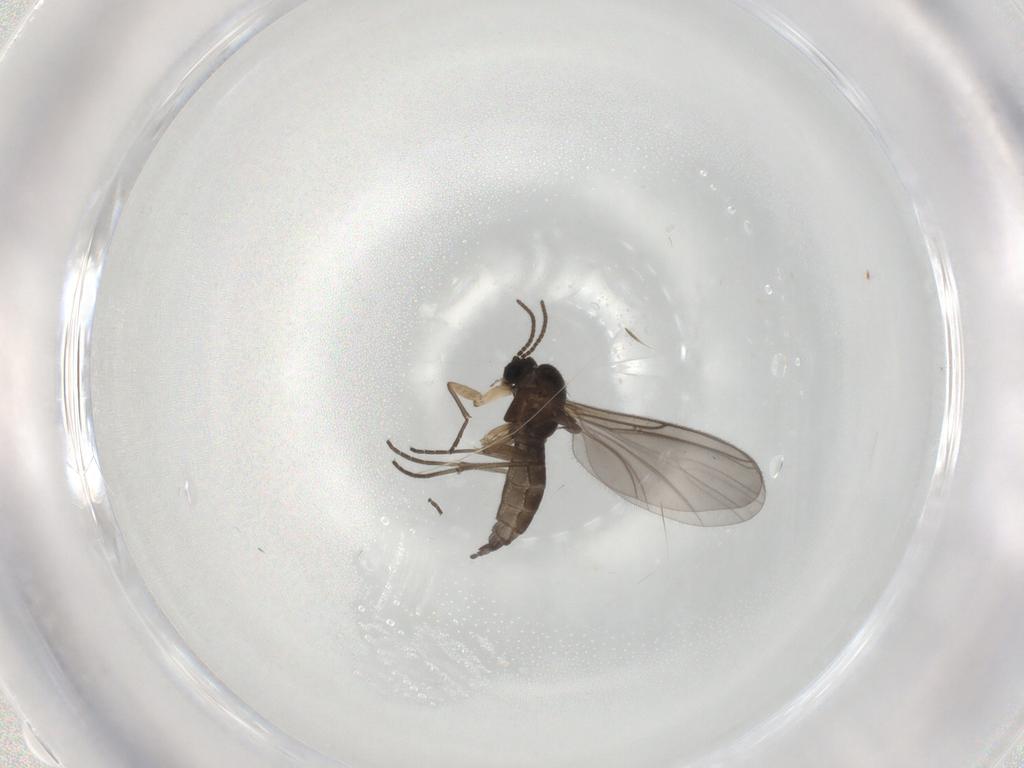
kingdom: Animalia
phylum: Arthropoda
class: Insecta
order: Diptera
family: Sciaridae
